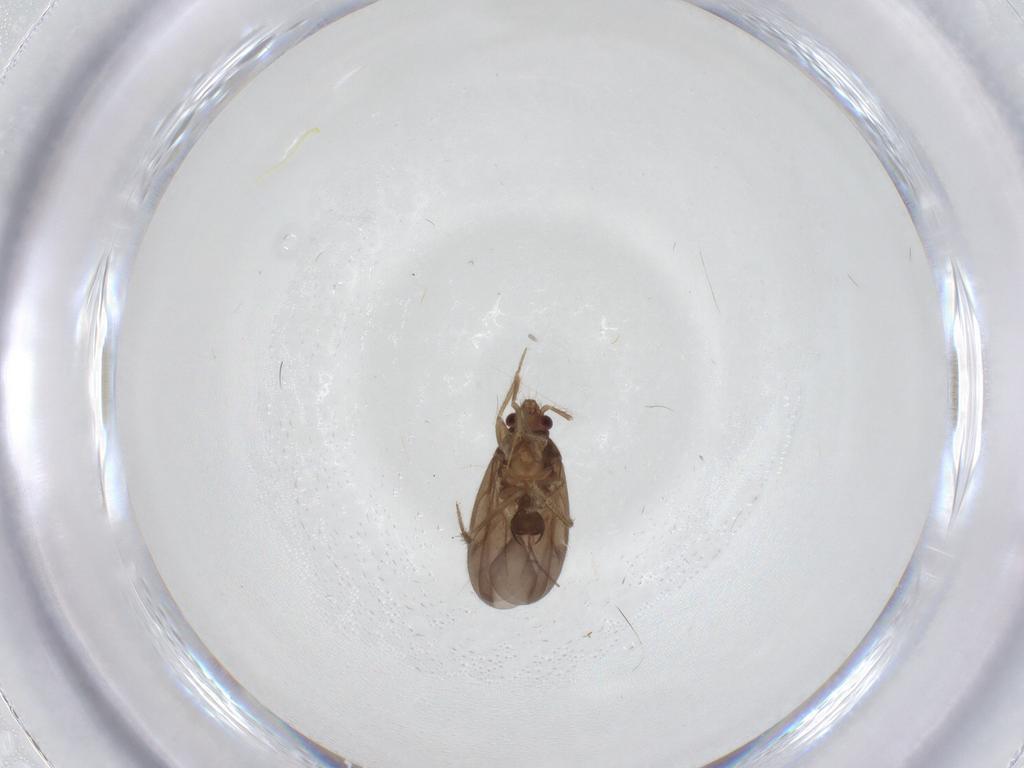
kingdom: Animalia
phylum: Arthropoda
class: Insecta
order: Hemiptera
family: Ceratocombidae
